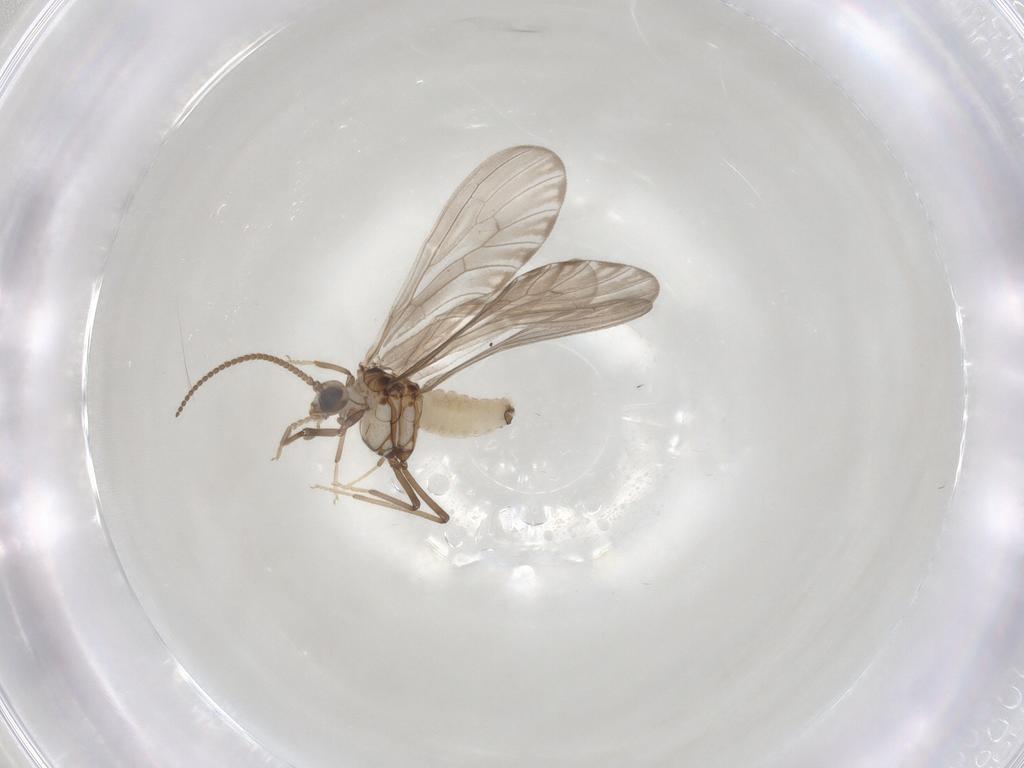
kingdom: Animalia
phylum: Arthropoda
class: Insecta
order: Neuroptera
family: Coniopterygidae
